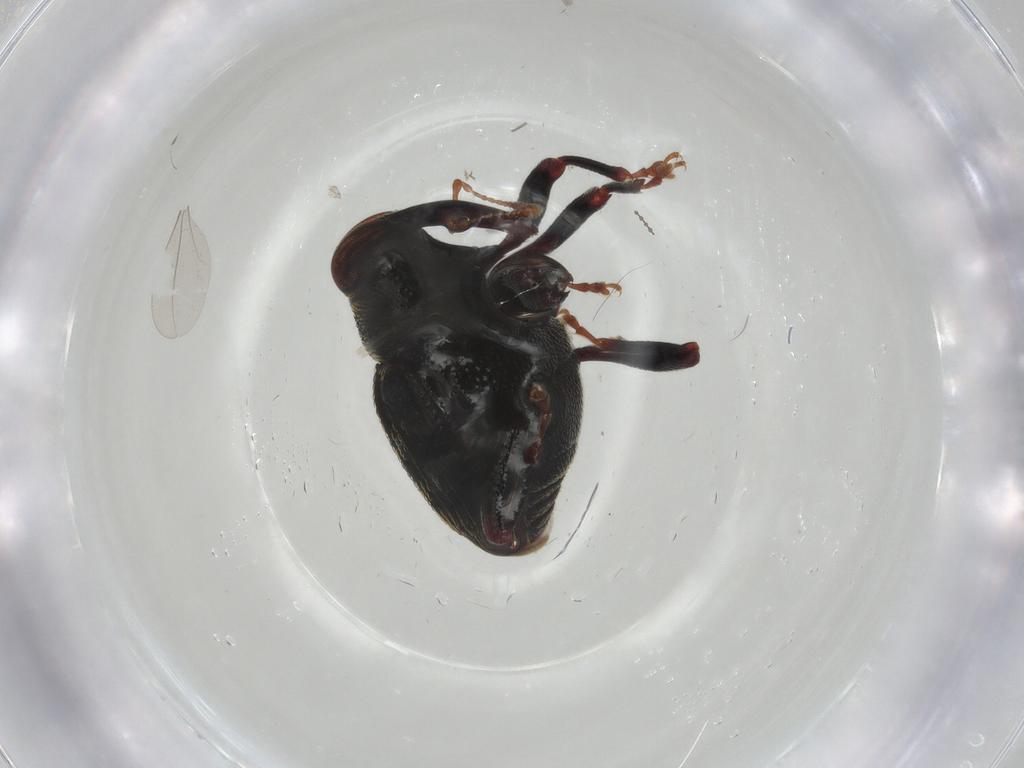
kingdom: Animalia
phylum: Arthropoda
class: Insecta
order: Coleoptera
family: Curculionidae
